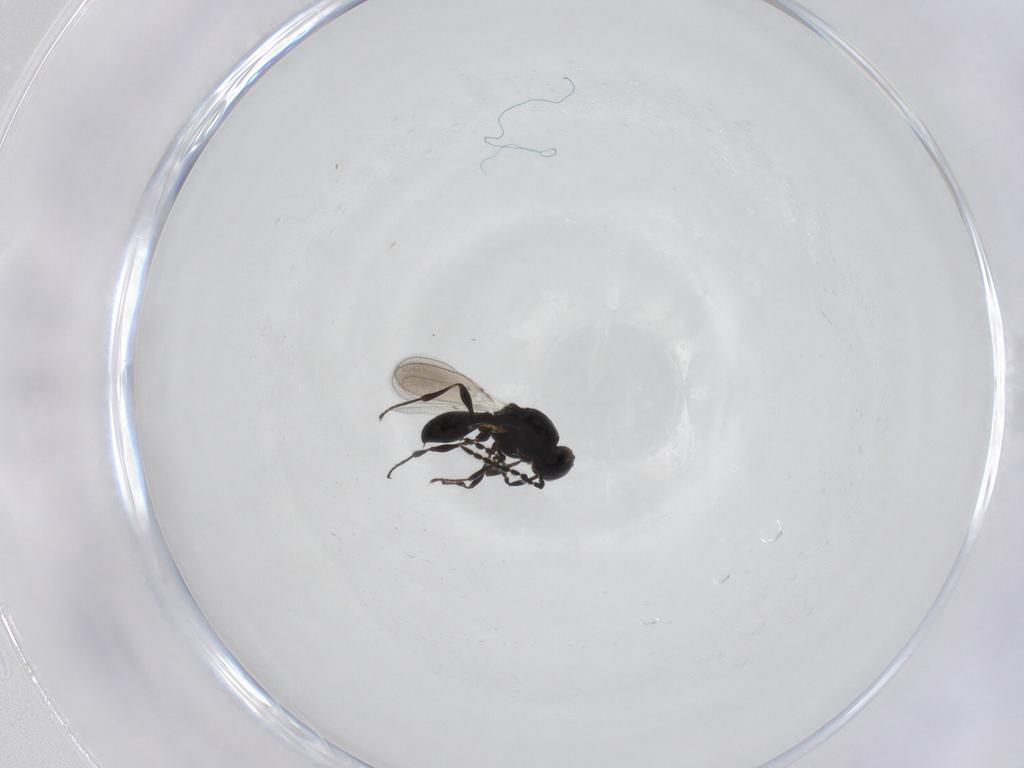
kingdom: Animalia
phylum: Arthropoda
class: Insecta
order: Hymenoptera
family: Platygastridae
